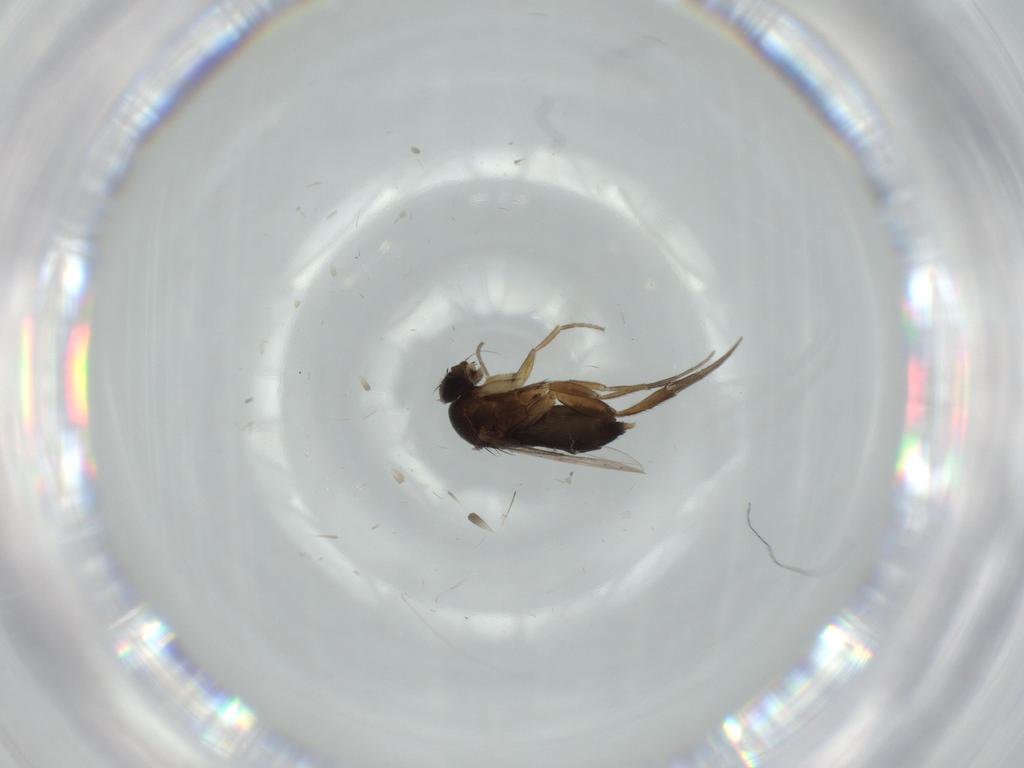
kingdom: Animalia
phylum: Arthropoda
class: Insecta
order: Diptera
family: Phoridae
